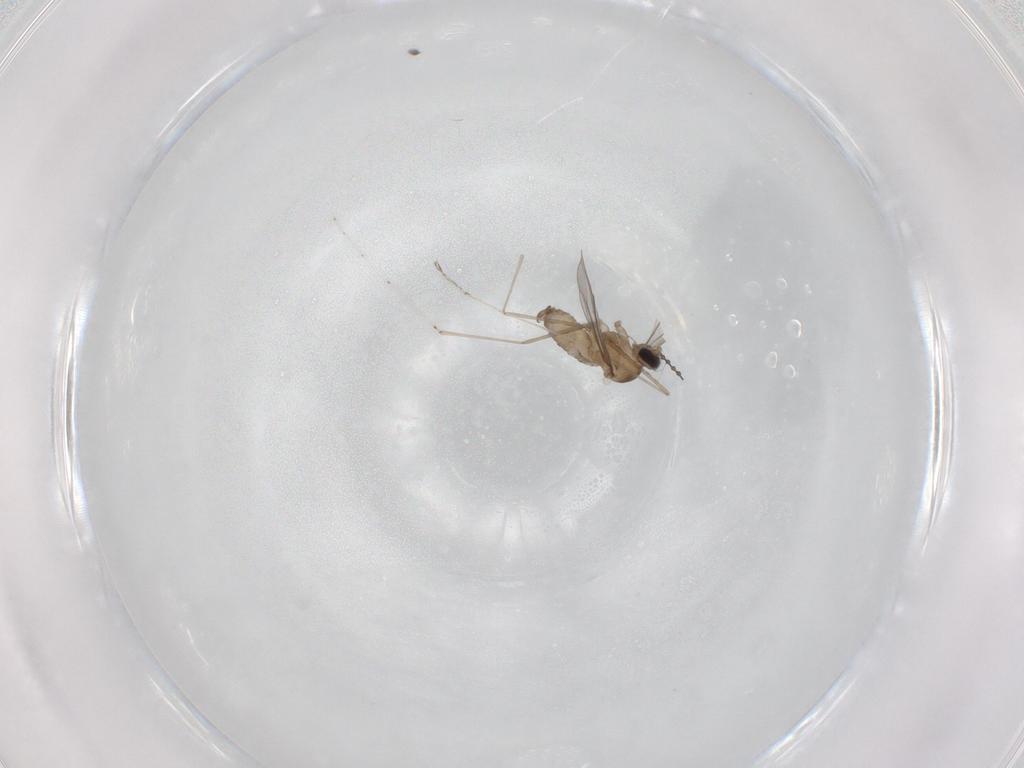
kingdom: Animalia
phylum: Arthropoda
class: Insecta
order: Diptera
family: Cecidomyiidae
